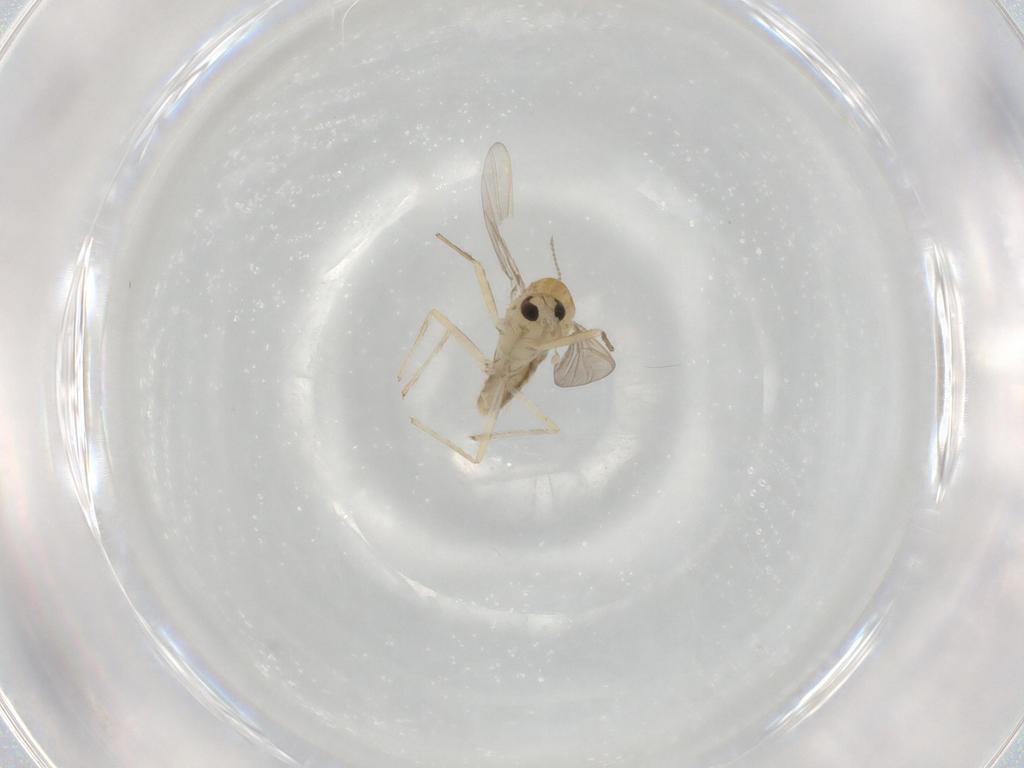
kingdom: Animalia
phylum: Arthropoda
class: Insecta
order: Diptera
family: Chironomidae
